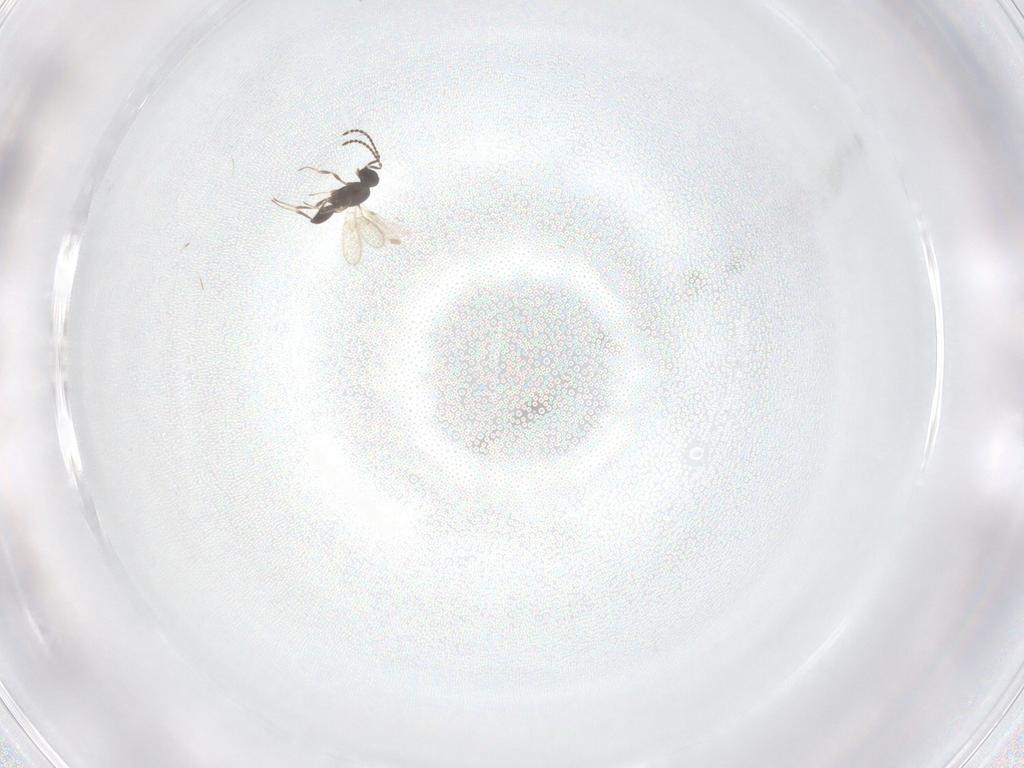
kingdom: Animalia
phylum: Arthropoda
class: Insecta
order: Hymenoptera
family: Scelionidae
